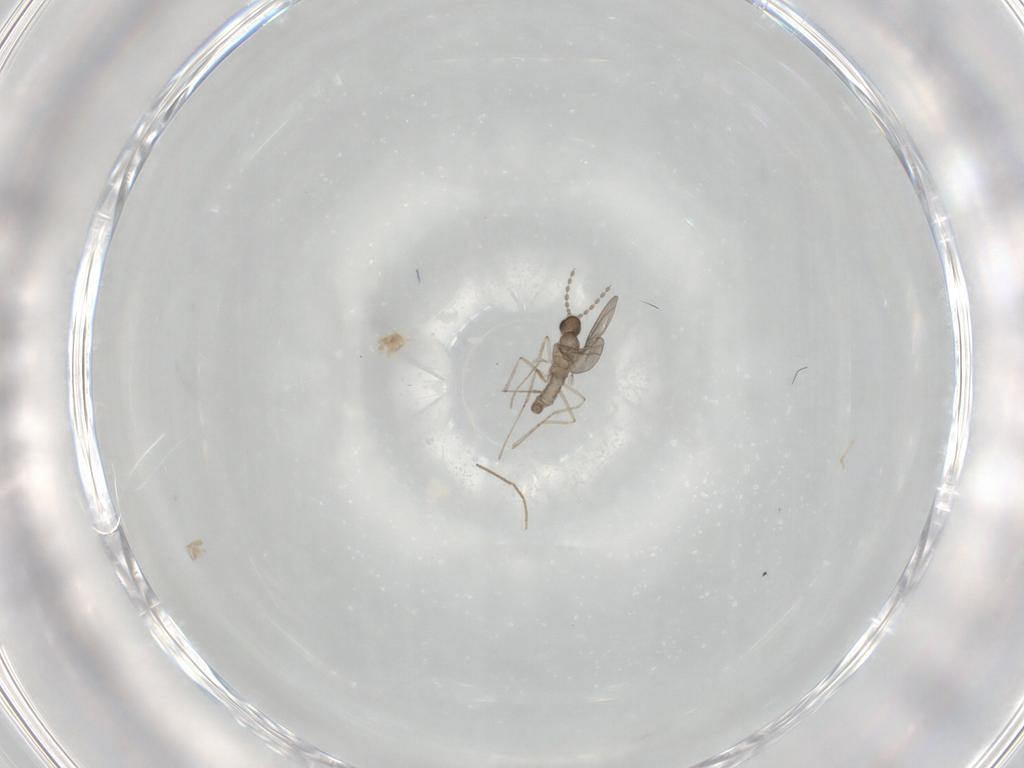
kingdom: Animalia
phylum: Arthropoda
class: Insecta
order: Diptera
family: Cecidomyiidae
